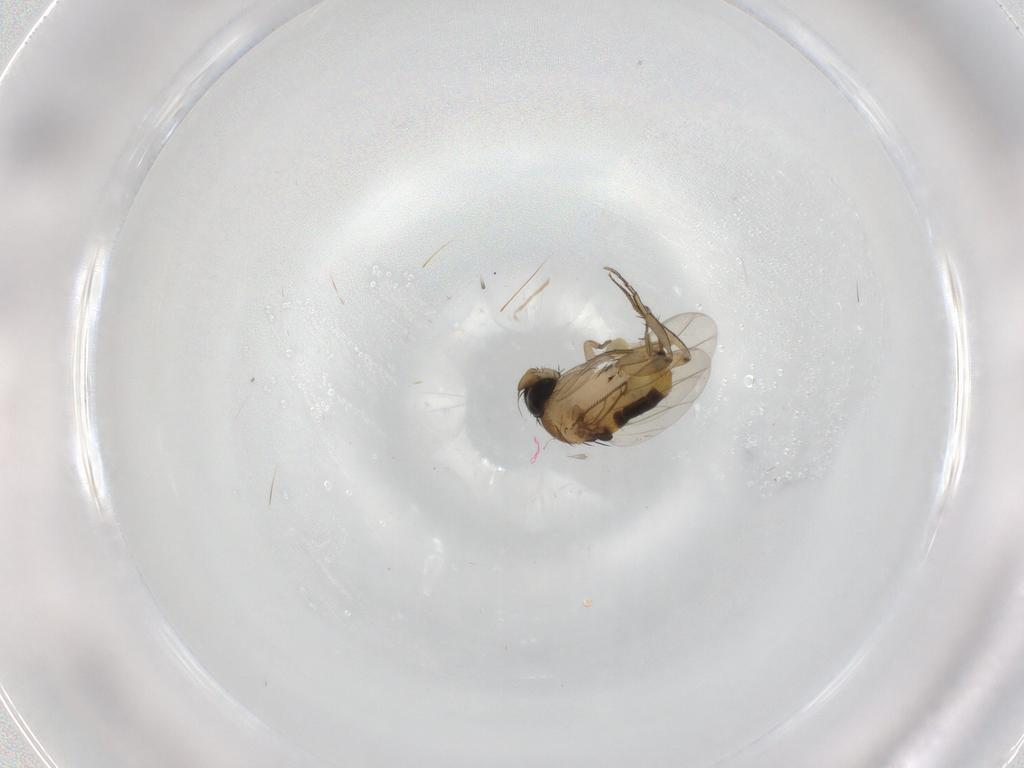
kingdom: Animalia
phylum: Arthropoda
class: Insecta
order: Diptera
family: Phoridae
